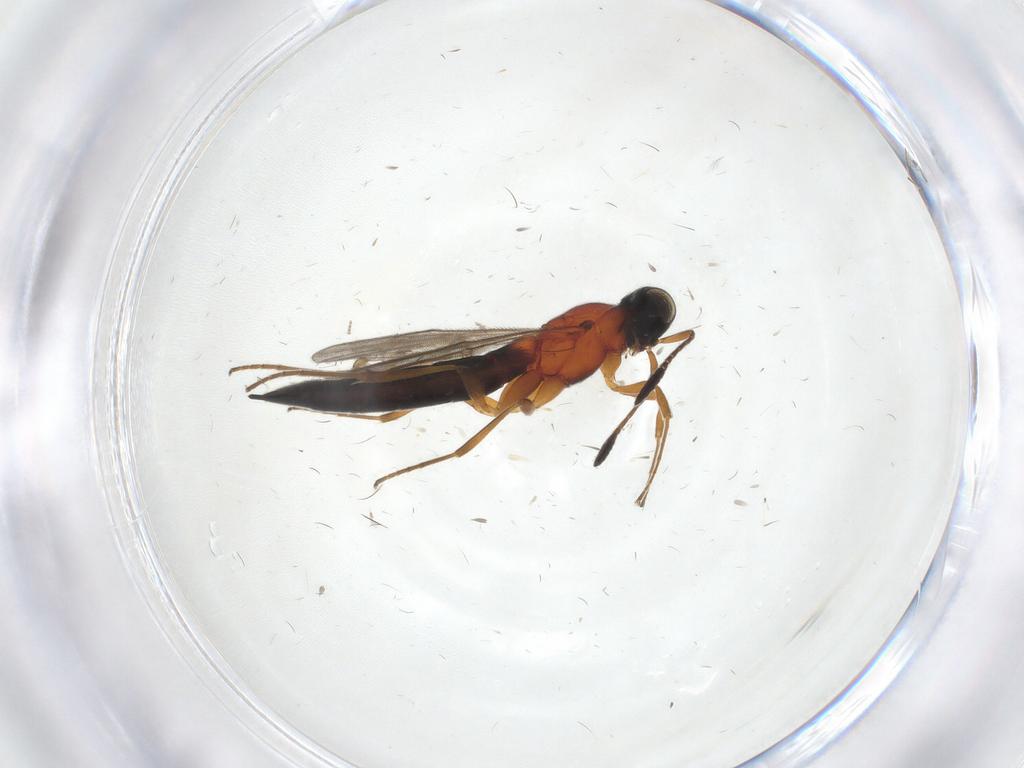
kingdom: Animalia
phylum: Arthropoda
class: Insecta
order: Hymenoptera
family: Scelionidae
